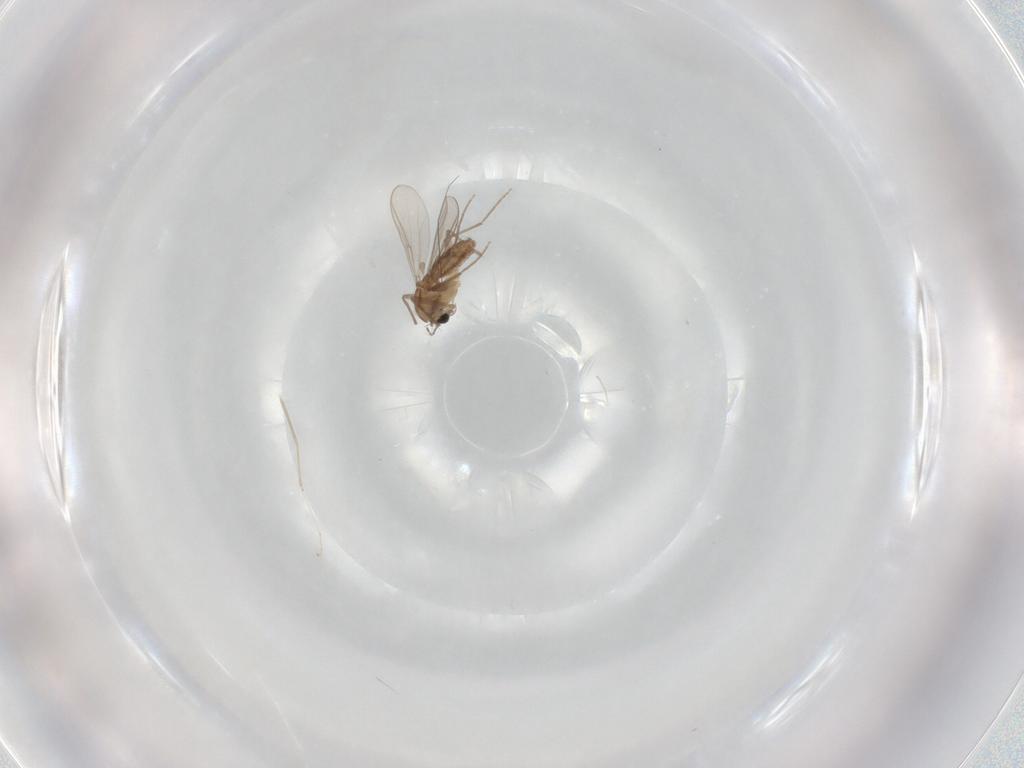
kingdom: Animalia
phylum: Arthropoda
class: Insecta
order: Diptera
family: Chironomidae
